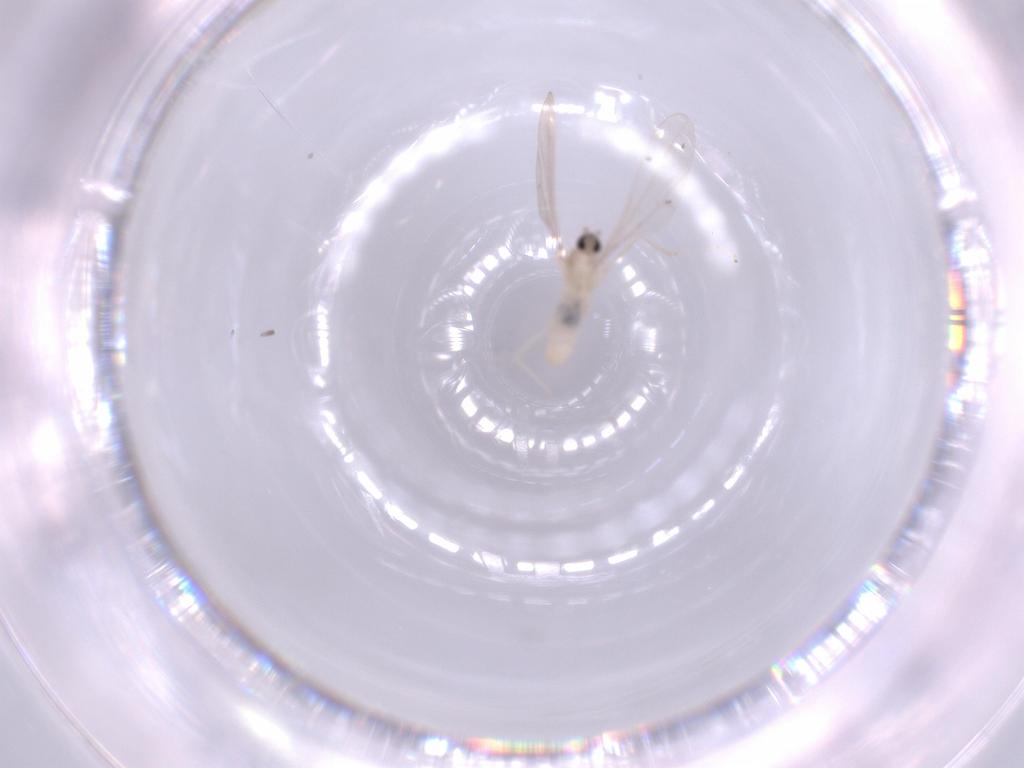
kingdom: Animalia
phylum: Arthropoda
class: Insecta
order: Diptera
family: Cecidomyiidae
